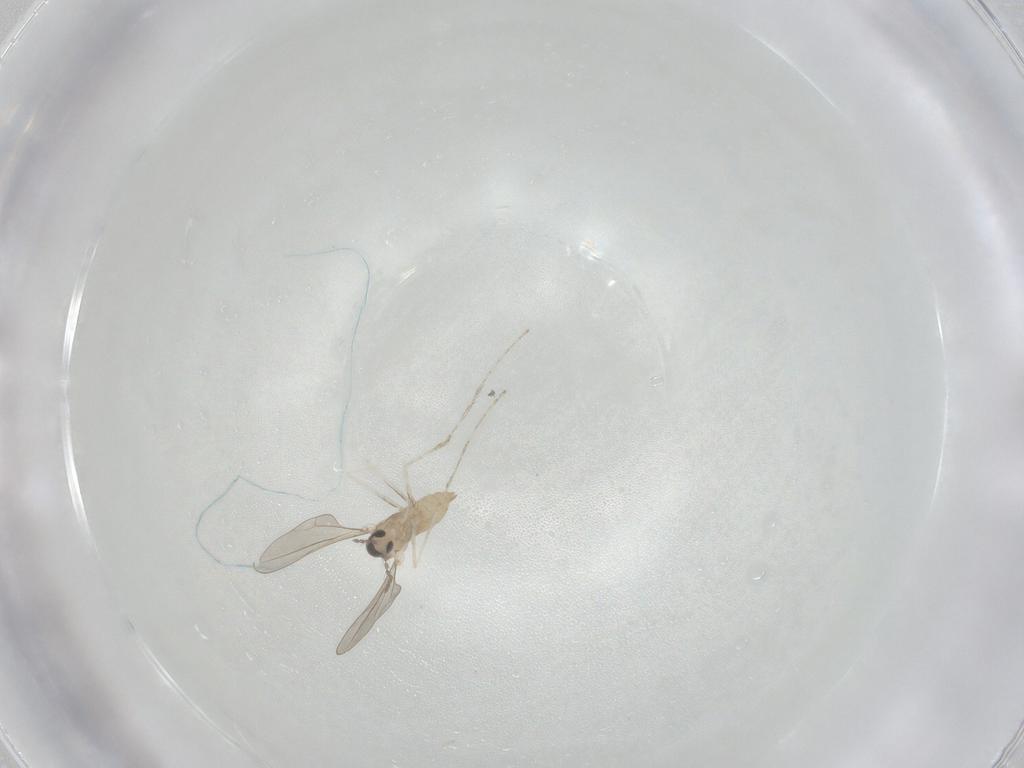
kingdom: Animalia
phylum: Arthropoda
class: Insecta
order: Diptera
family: Cecidomyiidae
